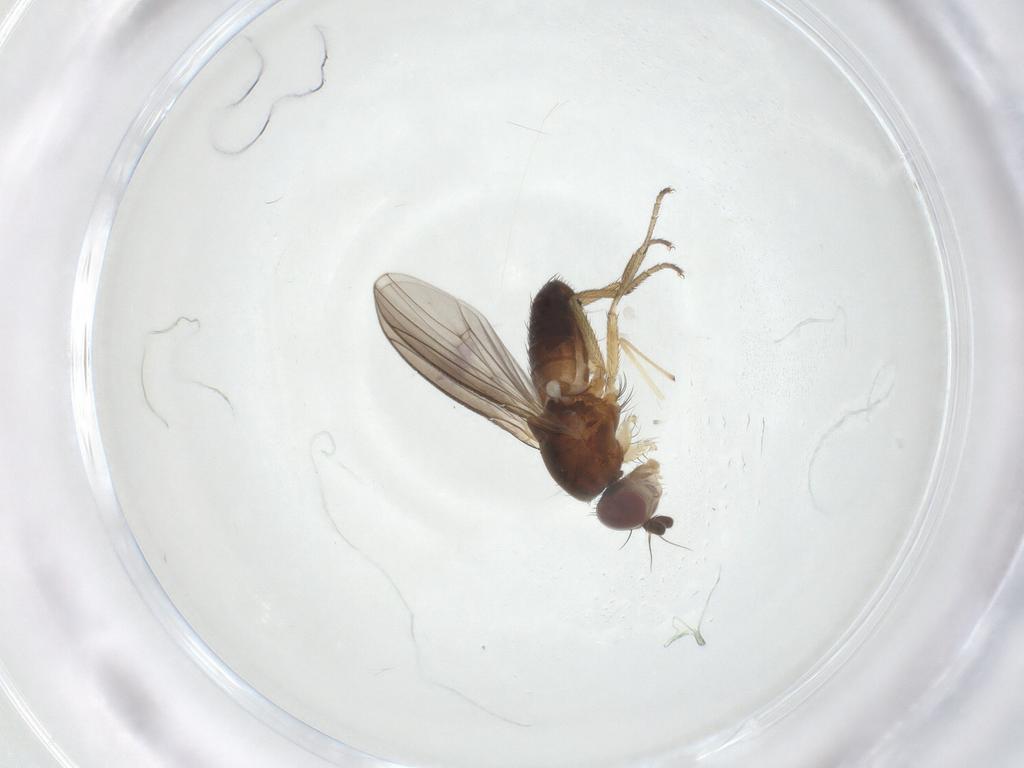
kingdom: Animalia
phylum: Arthropoda
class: Insecta
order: Diptera
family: Heleomyzidae
